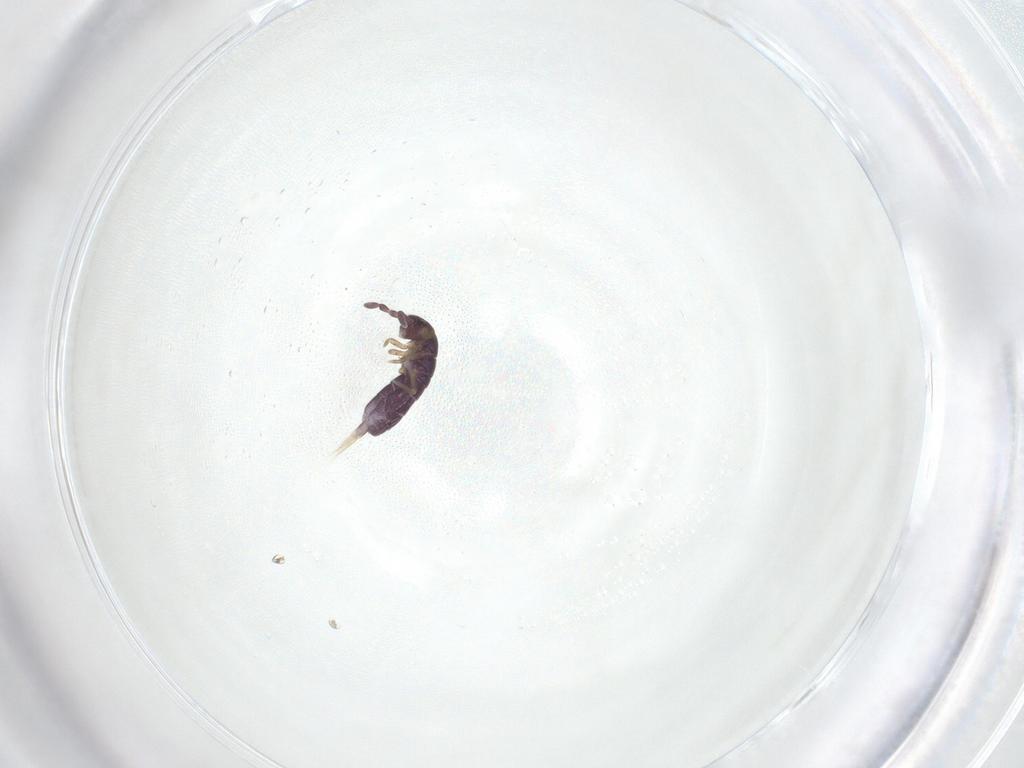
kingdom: Animalia
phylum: Arthropoda
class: Collembola
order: Entomobryomorpha
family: Isotomidae
